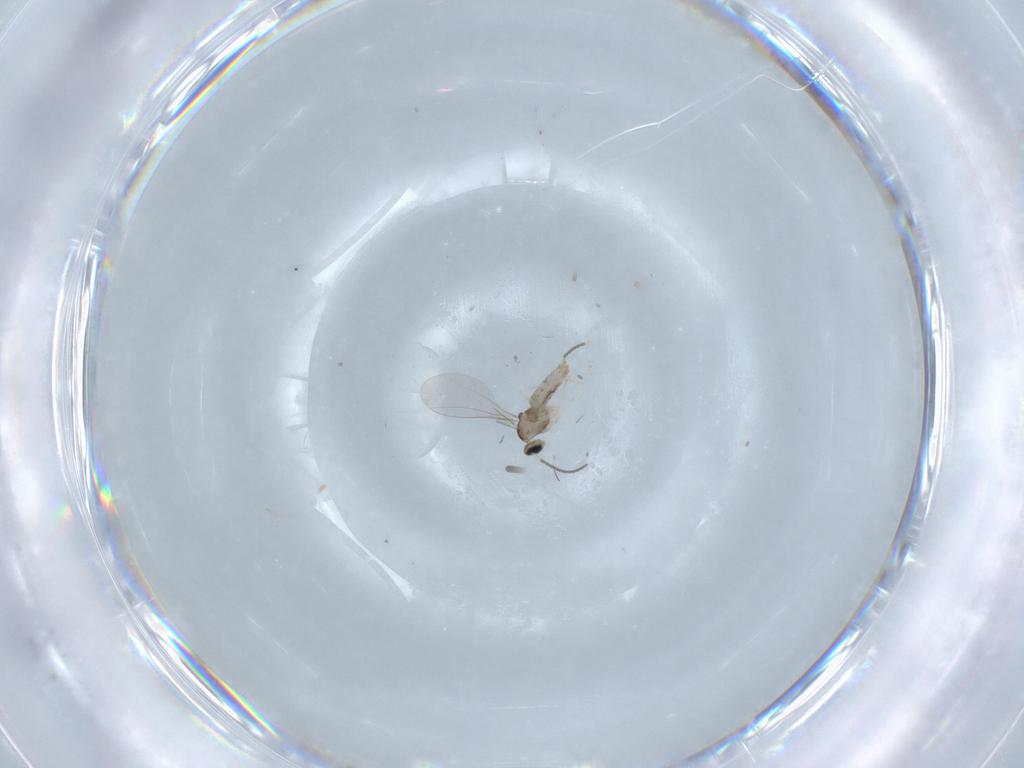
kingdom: Animalia
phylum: Arthropoda
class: Insecta
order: Diptera
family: Cecidomyiidae
